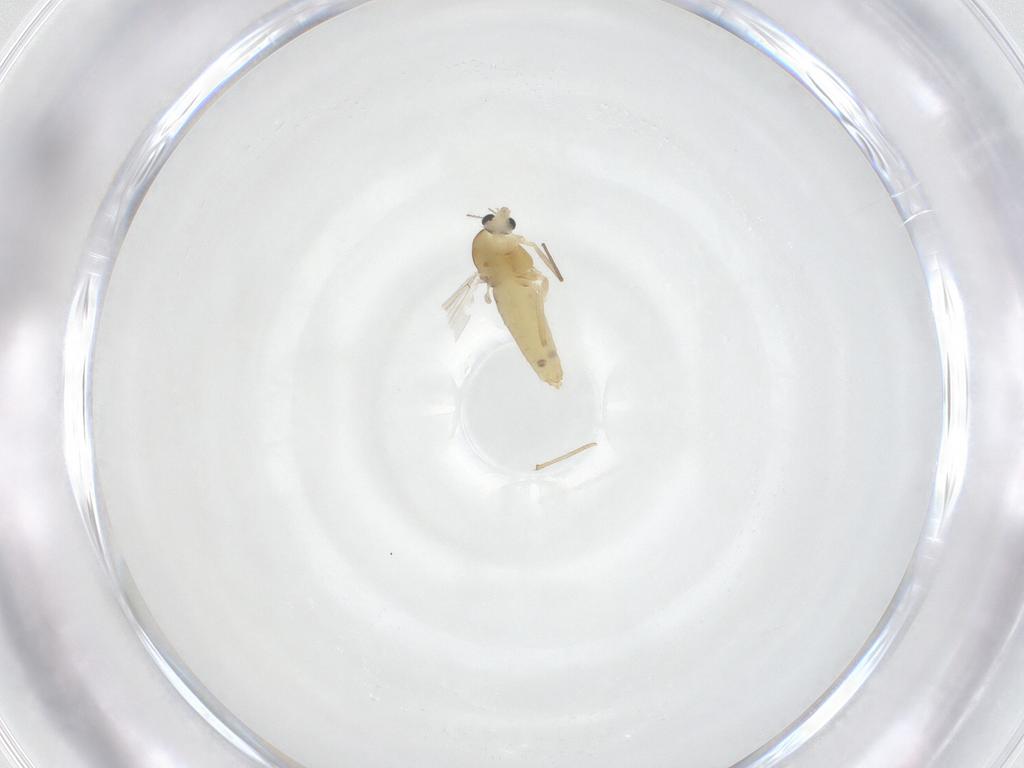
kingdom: Animalia
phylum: Arthropoda
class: Insecta
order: Diptera
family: Chironomidae
